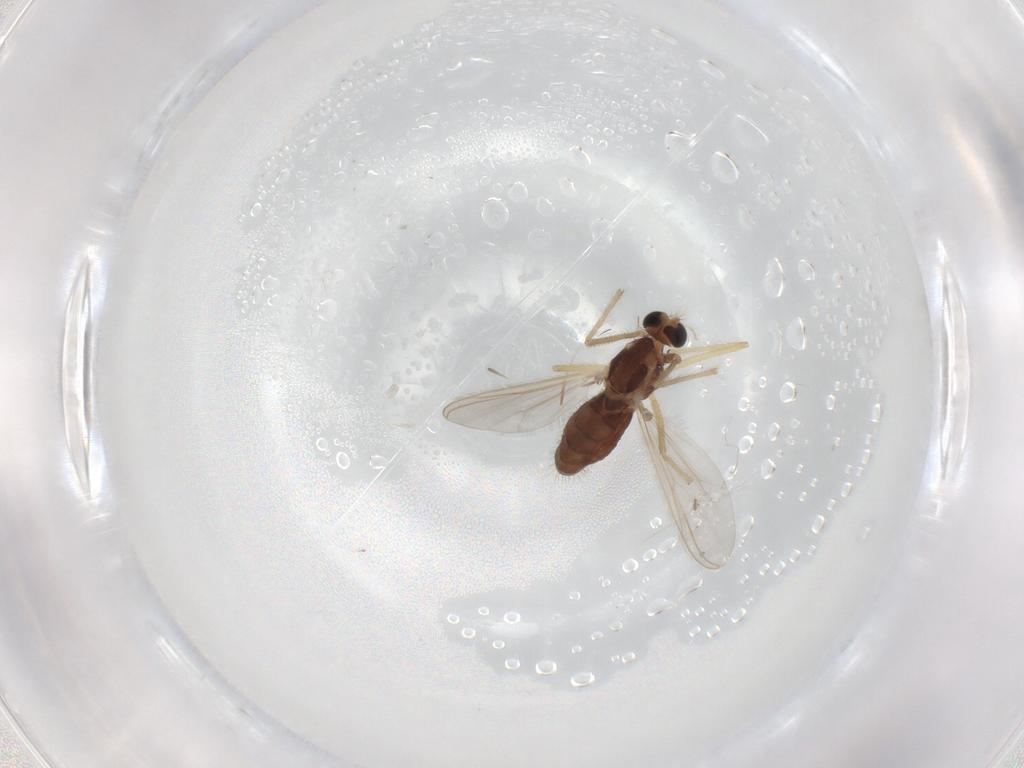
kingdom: Animalia
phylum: Arthropoda
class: Insecta
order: Diptera
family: Chironomidae
